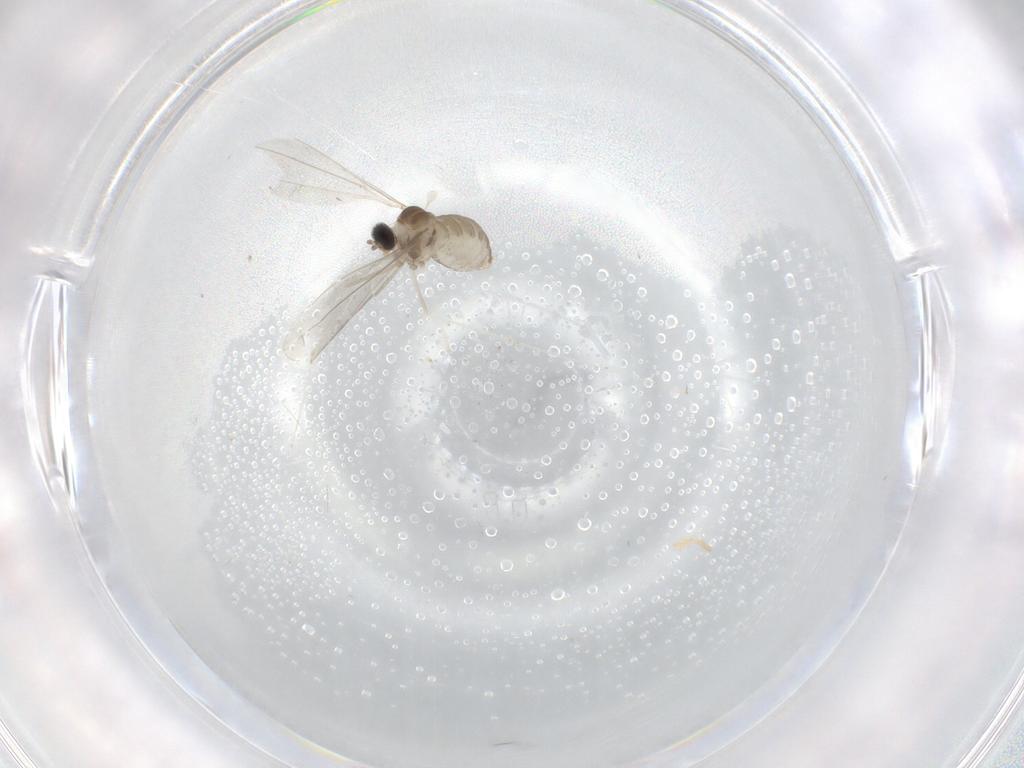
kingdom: Animalia
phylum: Arthropoda
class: Insecta
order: Diptera
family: Cecidomyiidae
